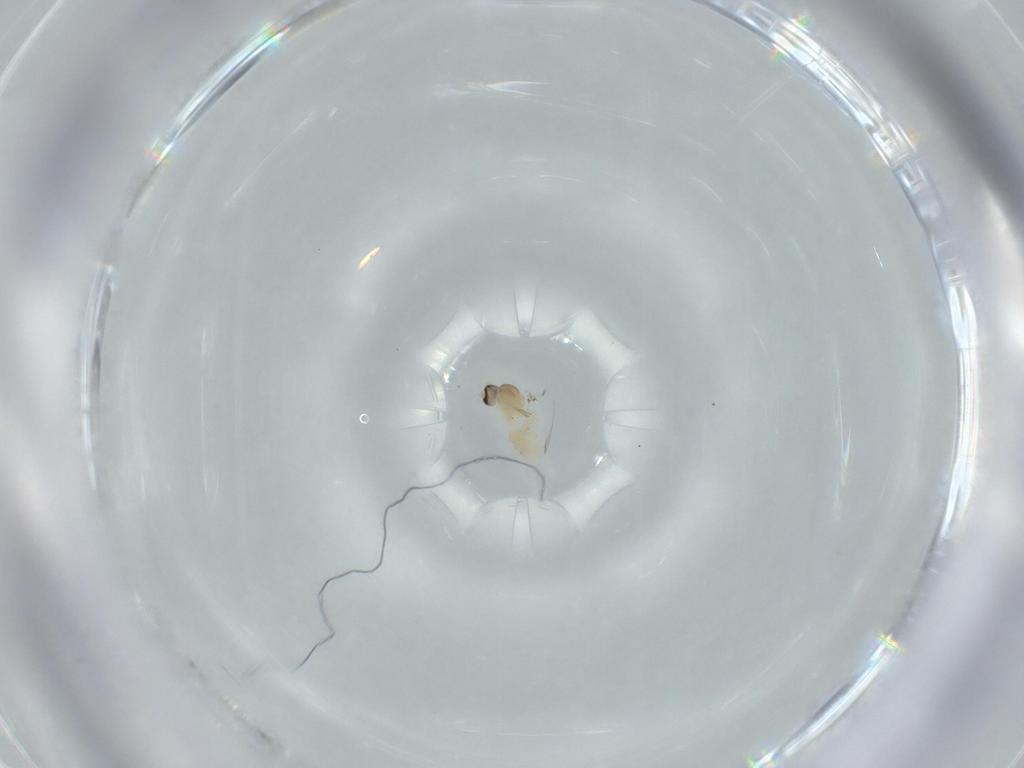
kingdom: Animalia
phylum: Arthropoda
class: Insecta
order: Diptera
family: Cecidomyiidae
